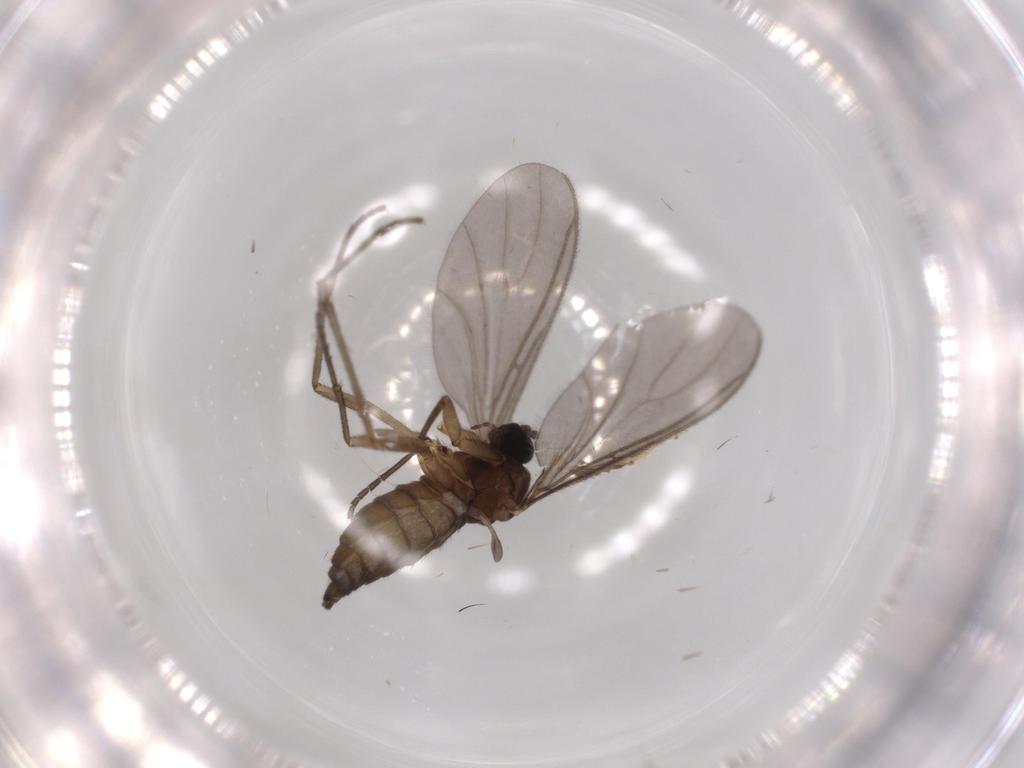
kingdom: Animalia
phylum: Arthropoda
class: Insecta
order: Diptera
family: Sciaridae
